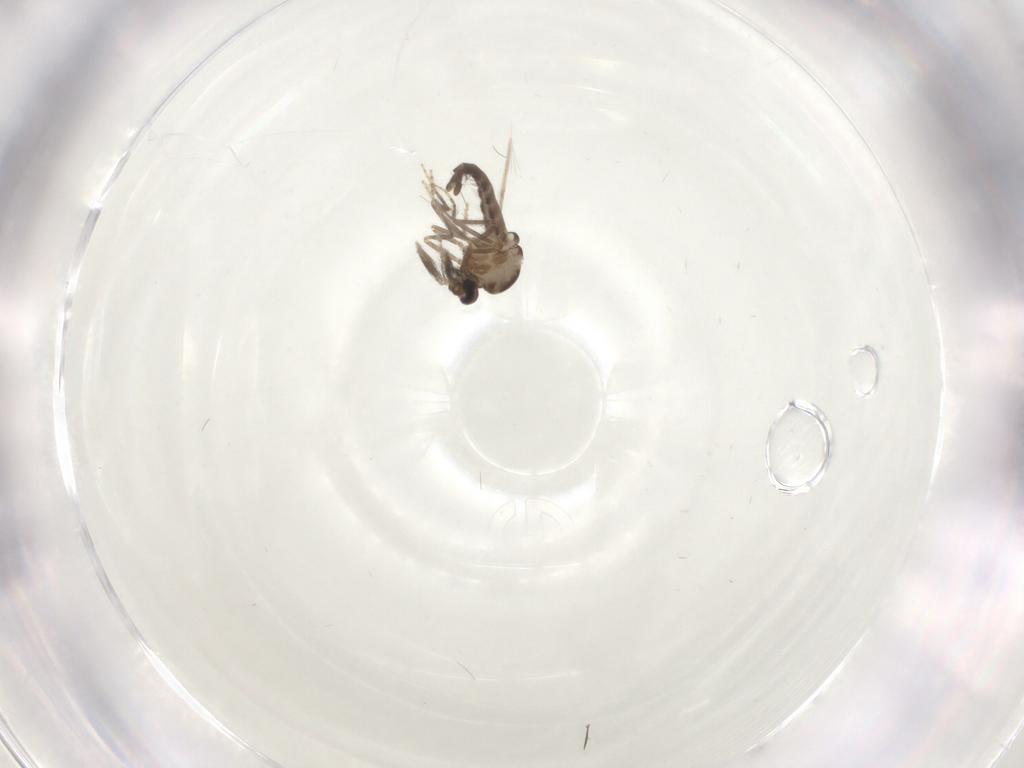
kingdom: Animalia
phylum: Arthropoda
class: Insecta
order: Diptera
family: Ceratopogonidae
